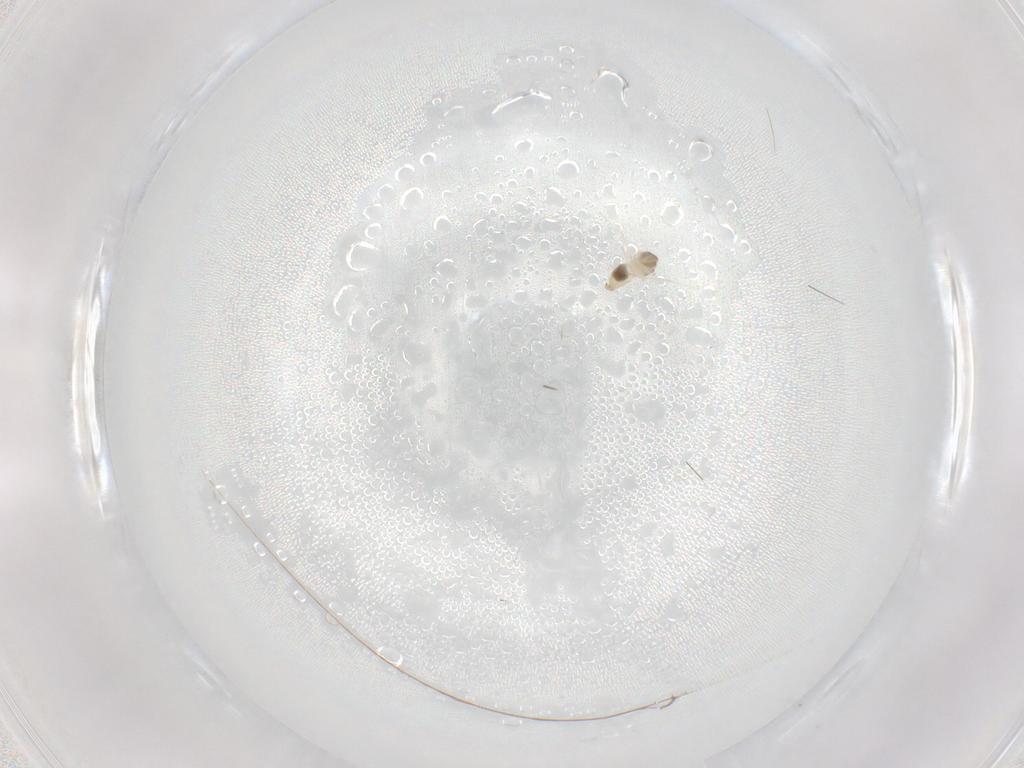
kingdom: Animalia
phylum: Arthropoda
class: Insecta
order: Diptera
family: Cecidomyiidae
